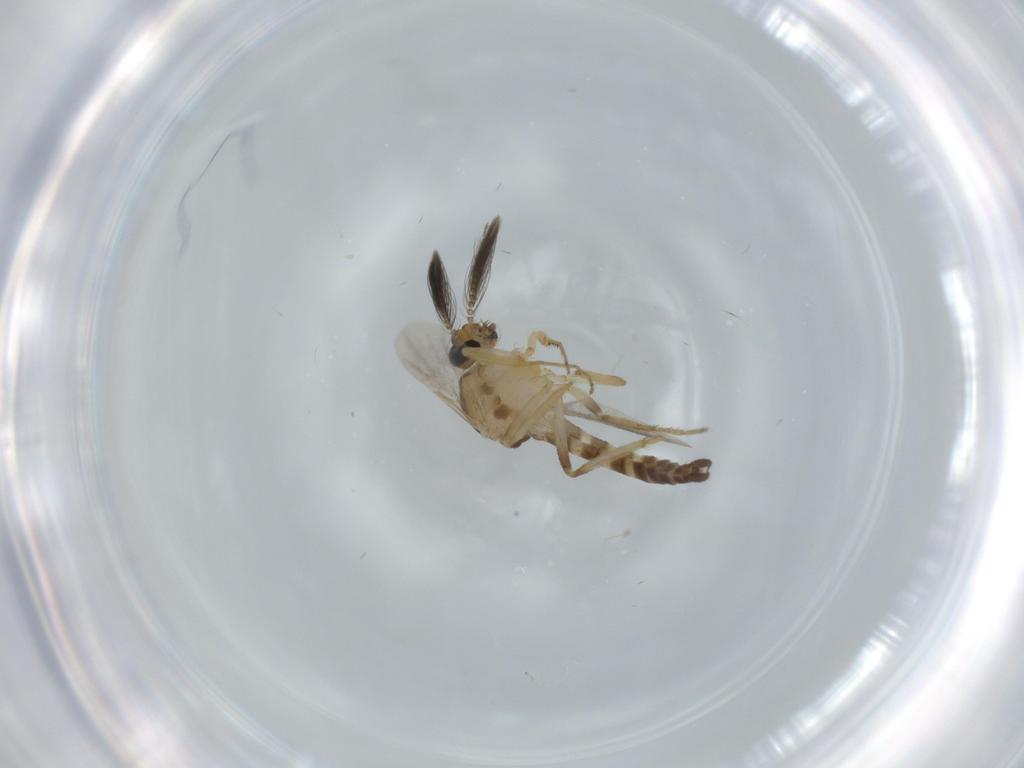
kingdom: Animalia
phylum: Arthropoda
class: Insecta
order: Diptera
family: Ceratopogonidae
